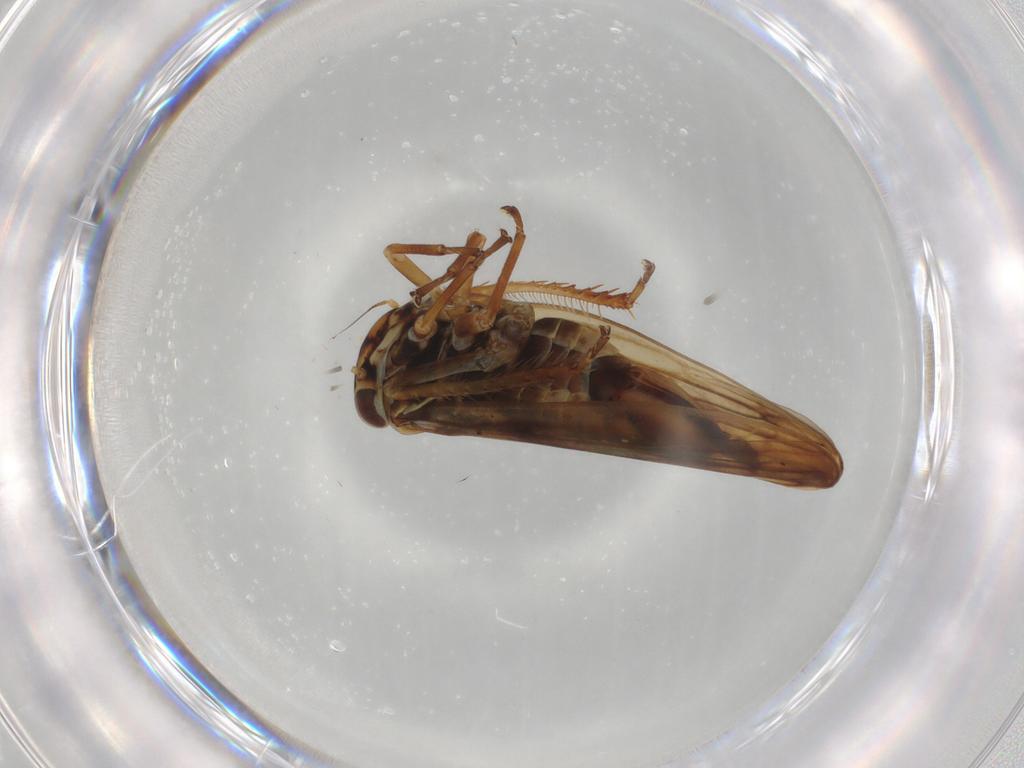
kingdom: Animalia
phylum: Arthropoda
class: Insecta
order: Hemiptera
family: Cicadellidae
